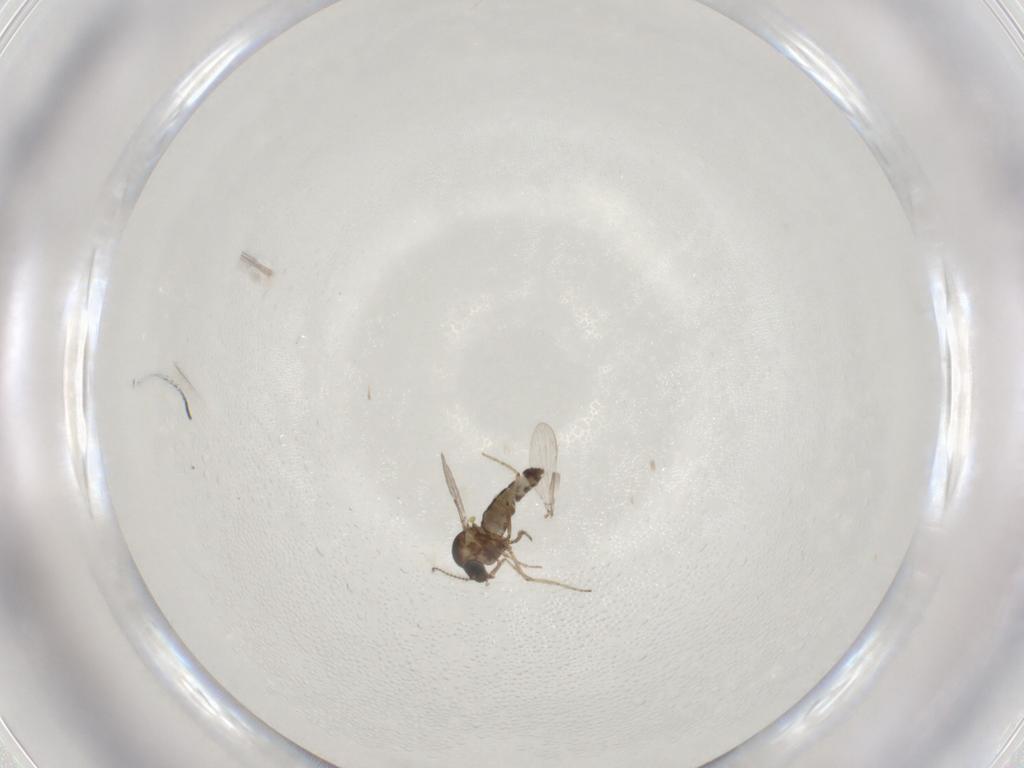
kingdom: Animalia
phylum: Arthropoda
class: Insecta
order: Diptera
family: Ceratopogonidae
